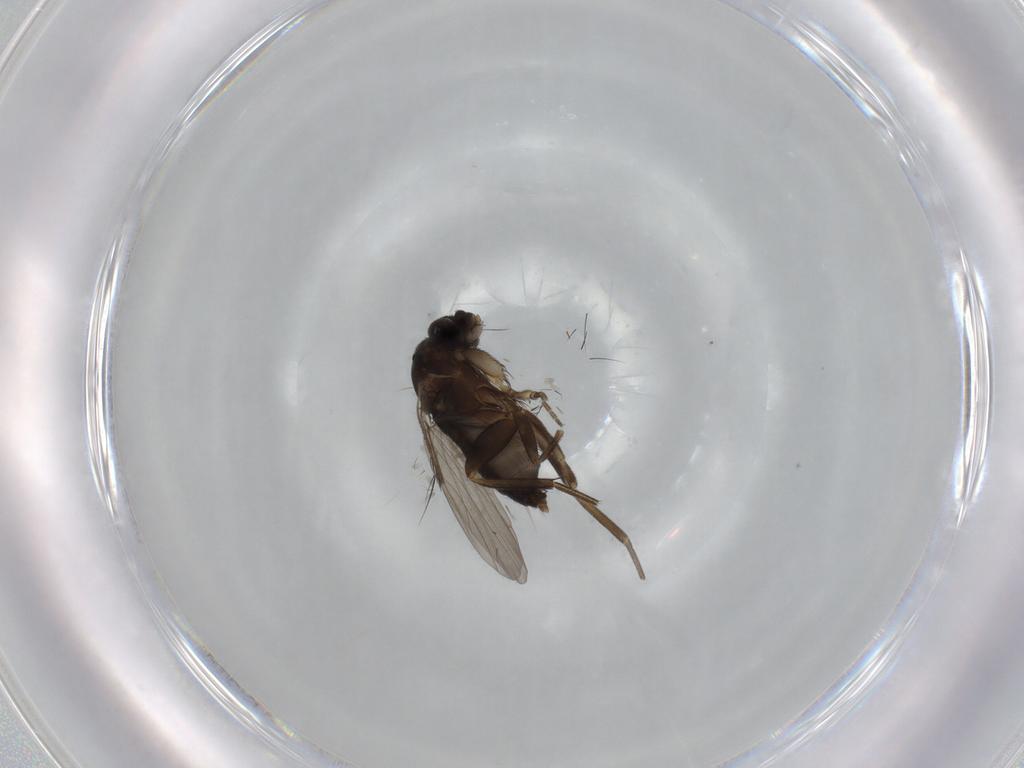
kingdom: Animalia
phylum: Arthropoda
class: Insecta
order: Diptera
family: Phoridae
